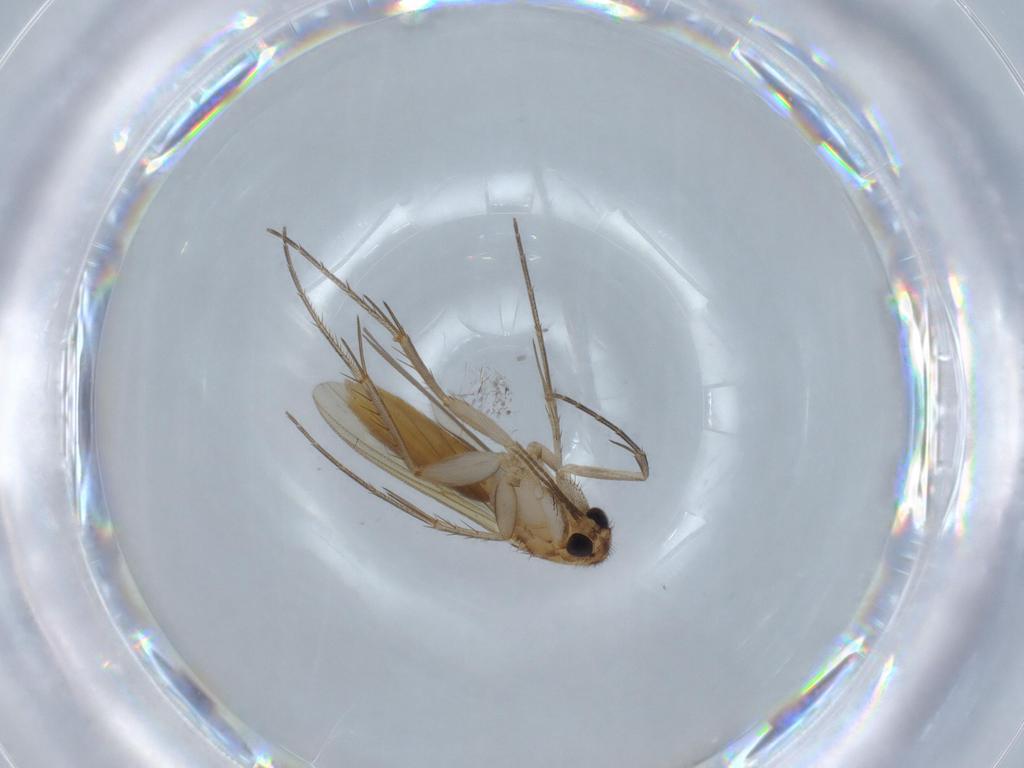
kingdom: Animalia
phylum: Arthropoda
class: Insecta
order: Diptera
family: Mycetophilidae
